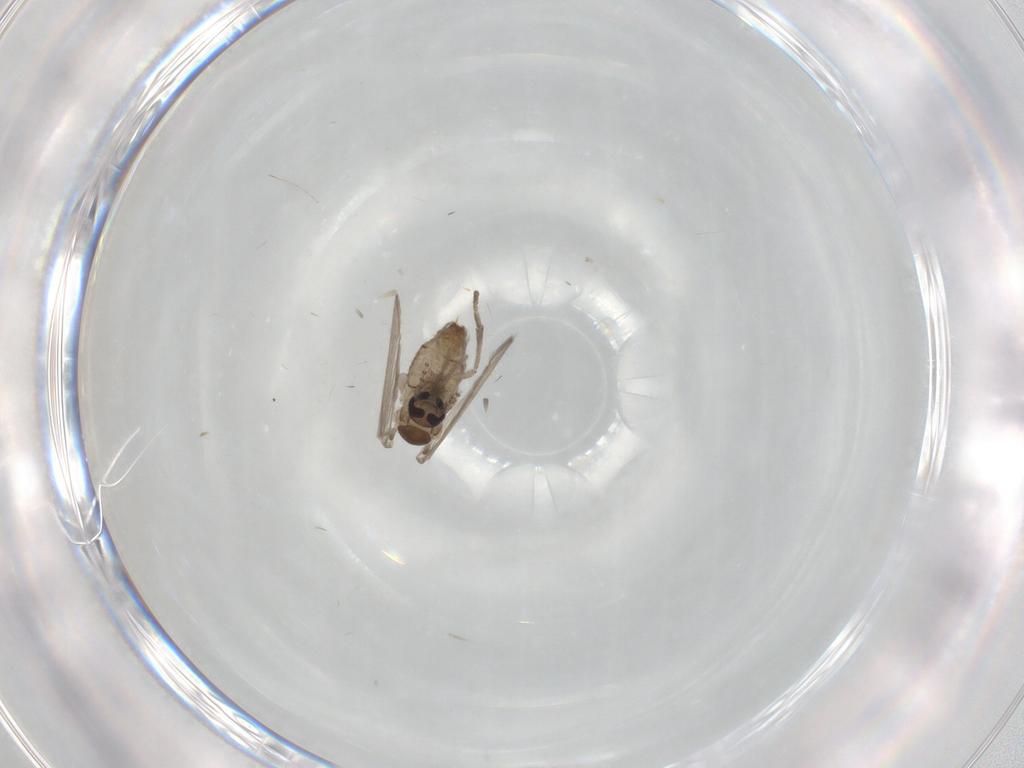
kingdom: Animalia
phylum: Arthropoda
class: Insecta
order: Diptera
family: Psychodidae
